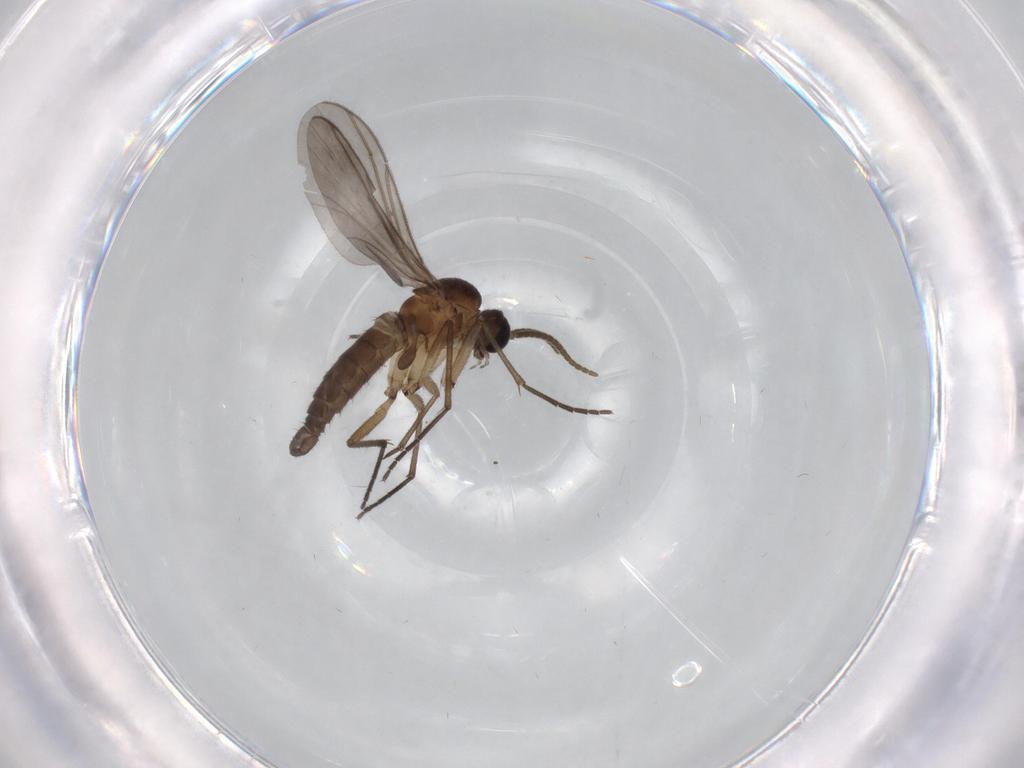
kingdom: Animalia
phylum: Arthropoda
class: Insecta
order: Diptera
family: Sciaridae
